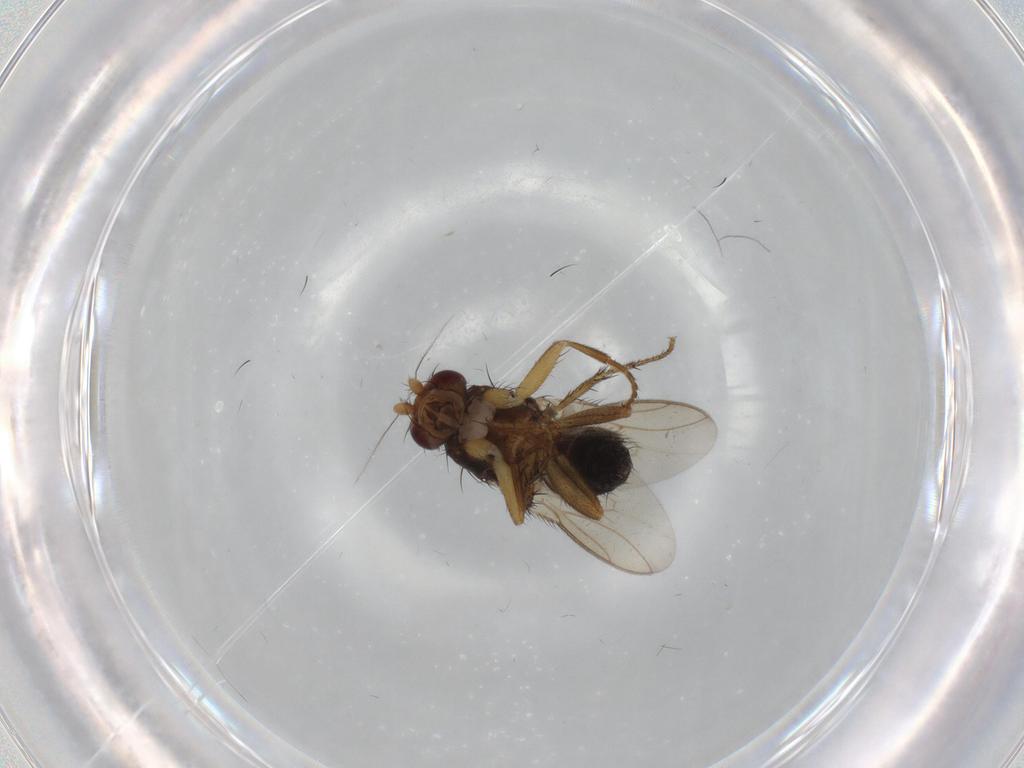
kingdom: Animalia
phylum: Arthropoda
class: Insecta
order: Diptera
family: Sphaeroceridae
